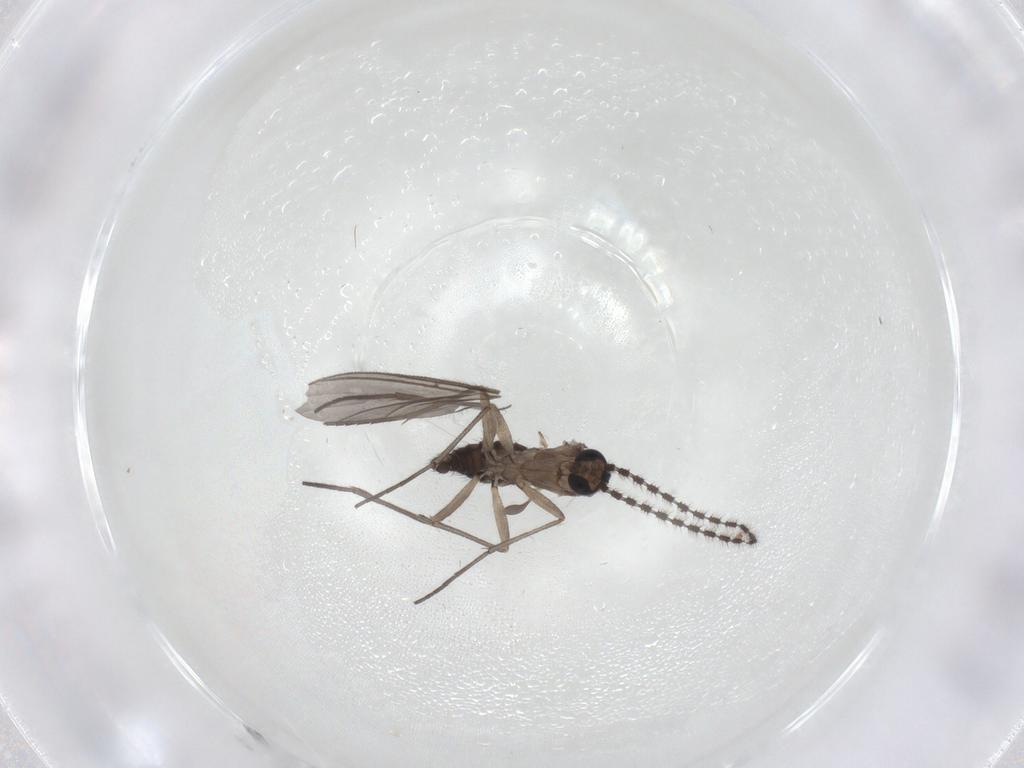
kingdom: Animalia
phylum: Arthropoda
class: Insecta
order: Diptera
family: Sciaridae
